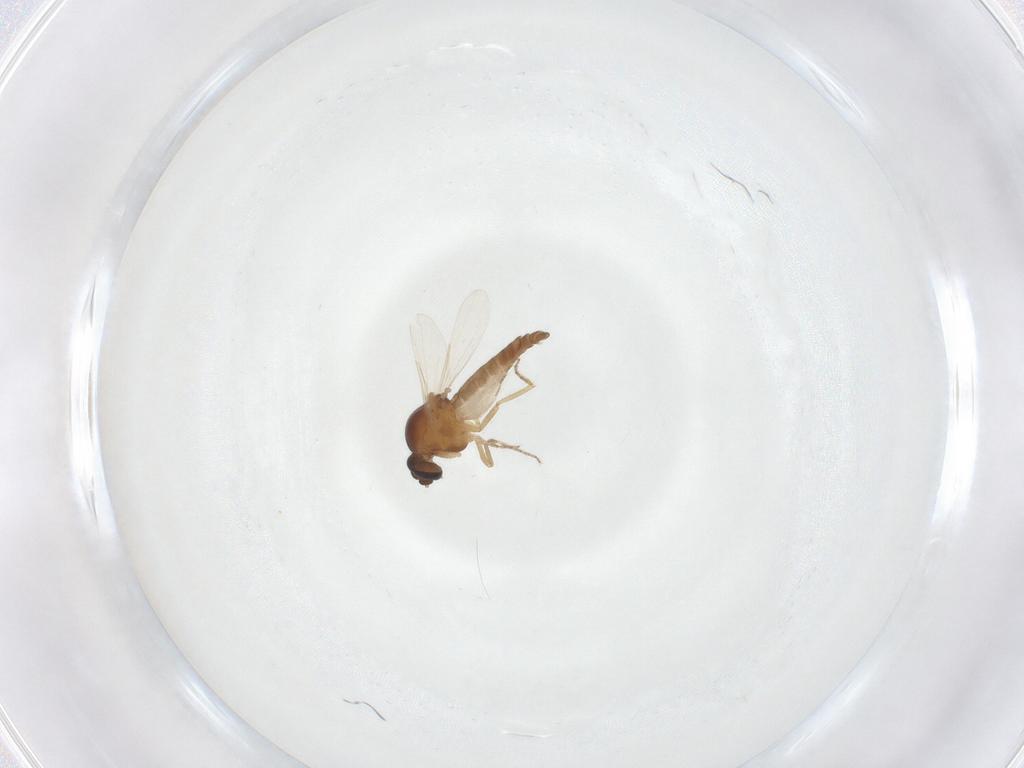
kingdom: Animalia
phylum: Arthropoda
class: Insecta
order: Diptera
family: Ceratopogonidae
